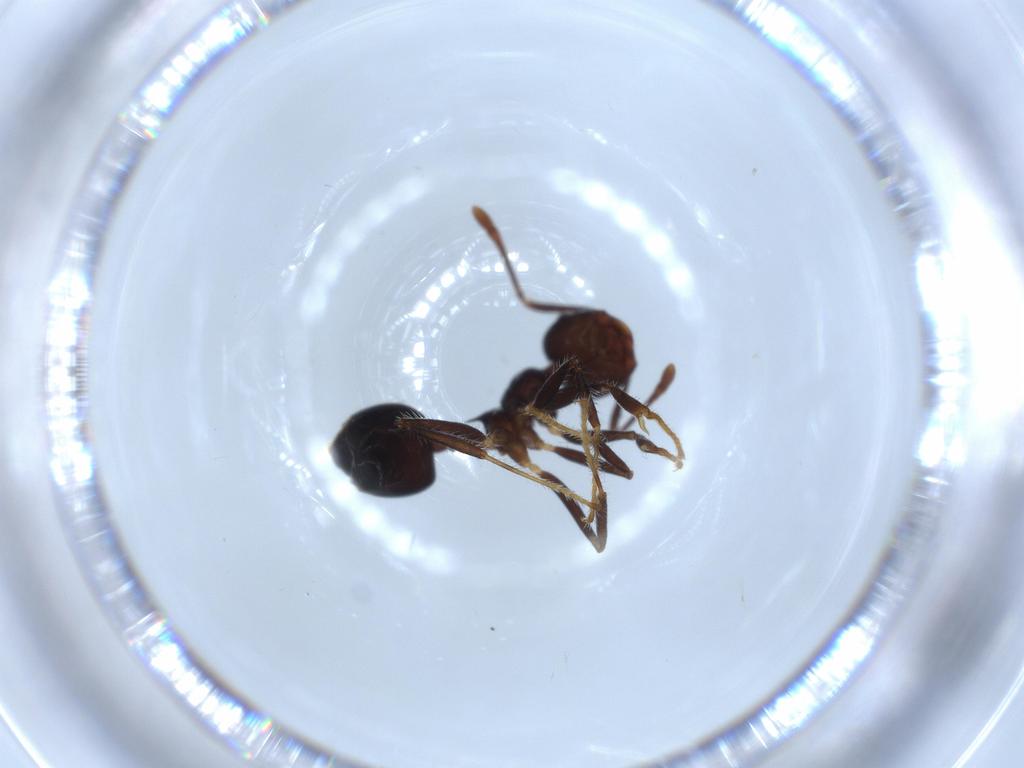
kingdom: Animalia
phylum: Arthropoda
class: Insecta
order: Hymenoptera
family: Formicidae
